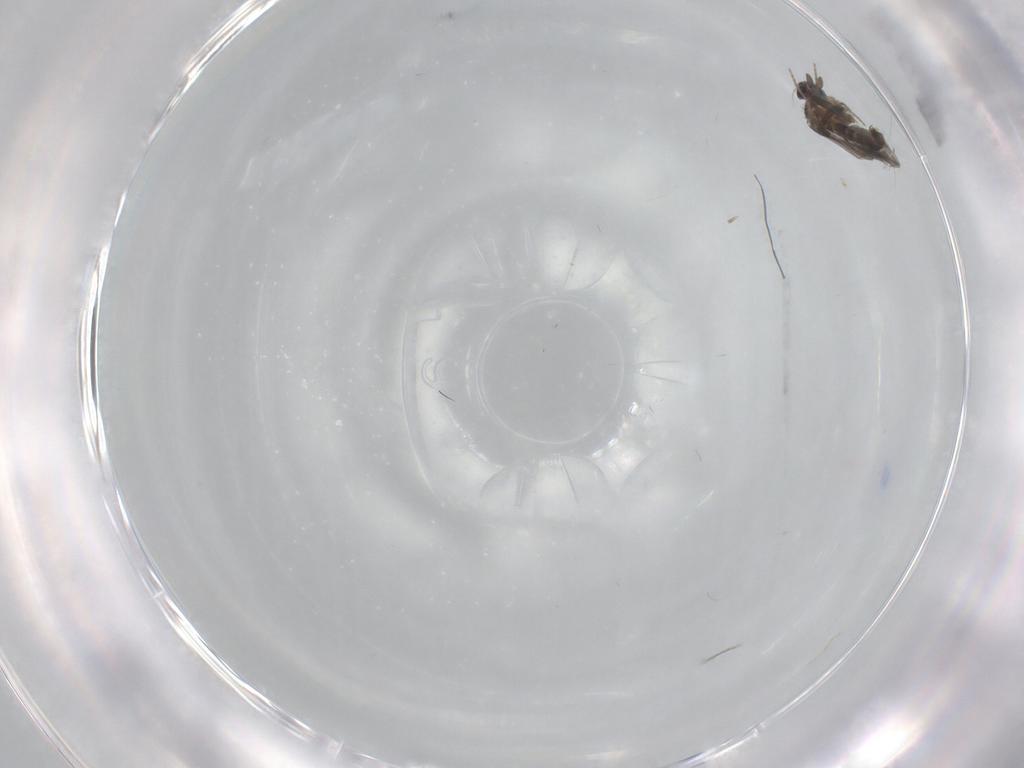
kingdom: Animalia
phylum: Arthropoda
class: Insecta
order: Diptera
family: Chironomidae
